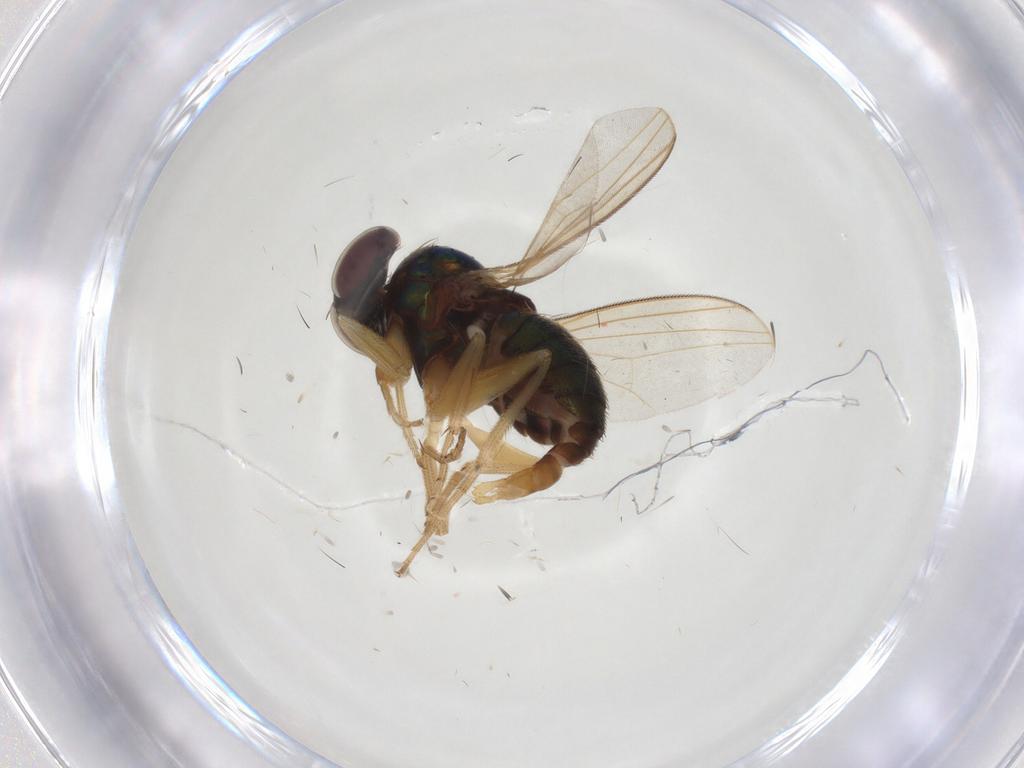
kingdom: Animalia
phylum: Arthropoda
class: Insecta
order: Diptera
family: Dolichopodidae
